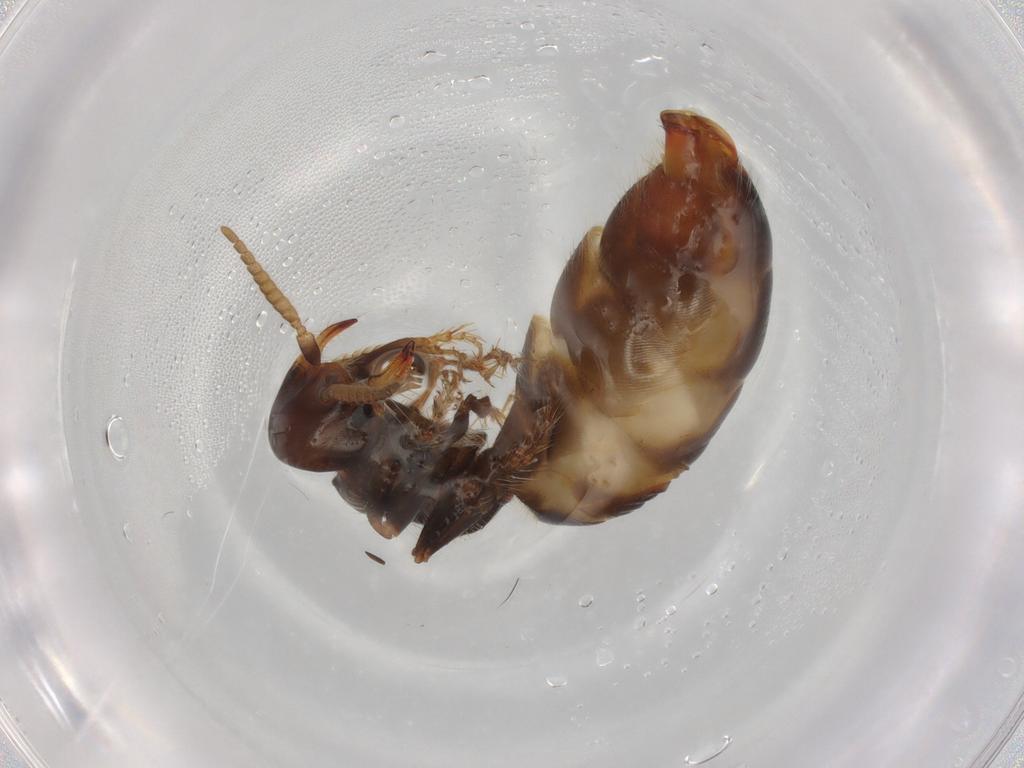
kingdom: Animalia
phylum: Arthropoda
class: Insecta
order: Hymenoptera
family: Thynnidae
